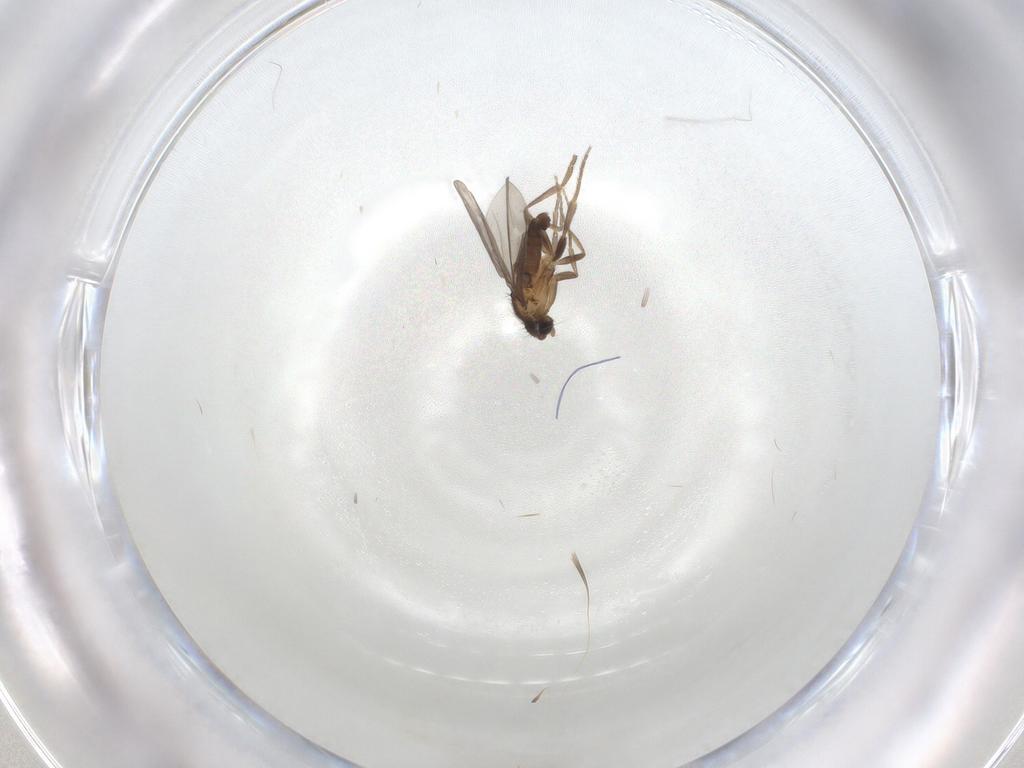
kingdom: Animalia
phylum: Arthropoda
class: Insecta
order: Diptera
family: Phoridae
